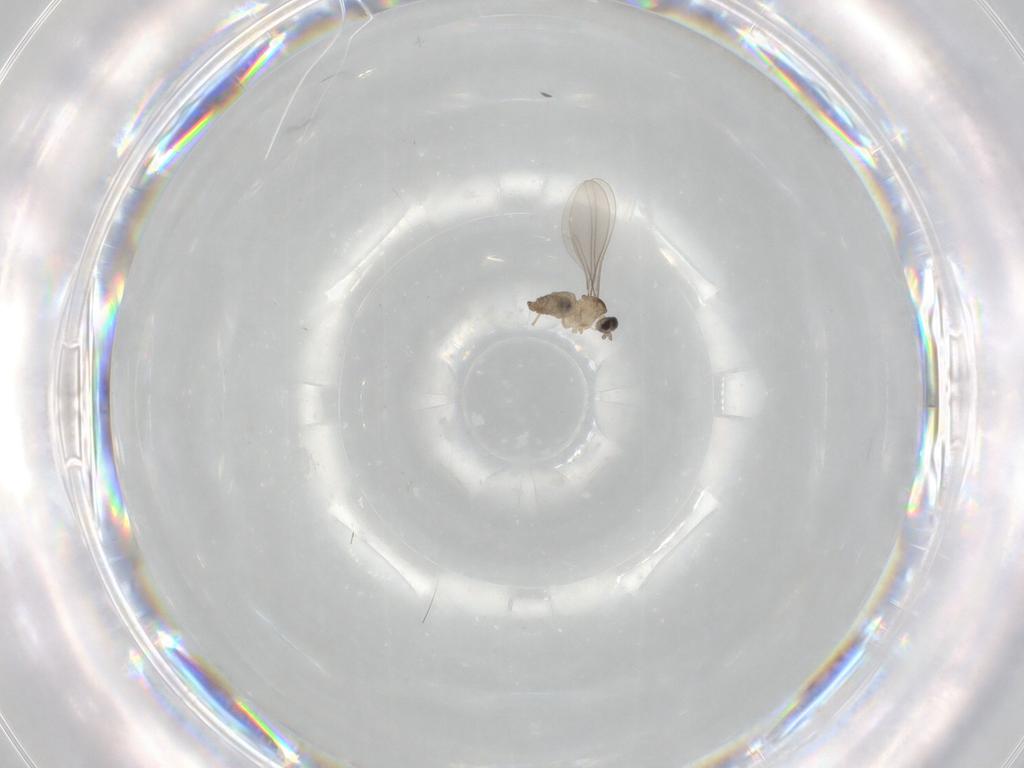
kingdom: Animalia
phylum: Arthropoda
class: Insecta
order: Diptera
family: Cecidomyiidae
